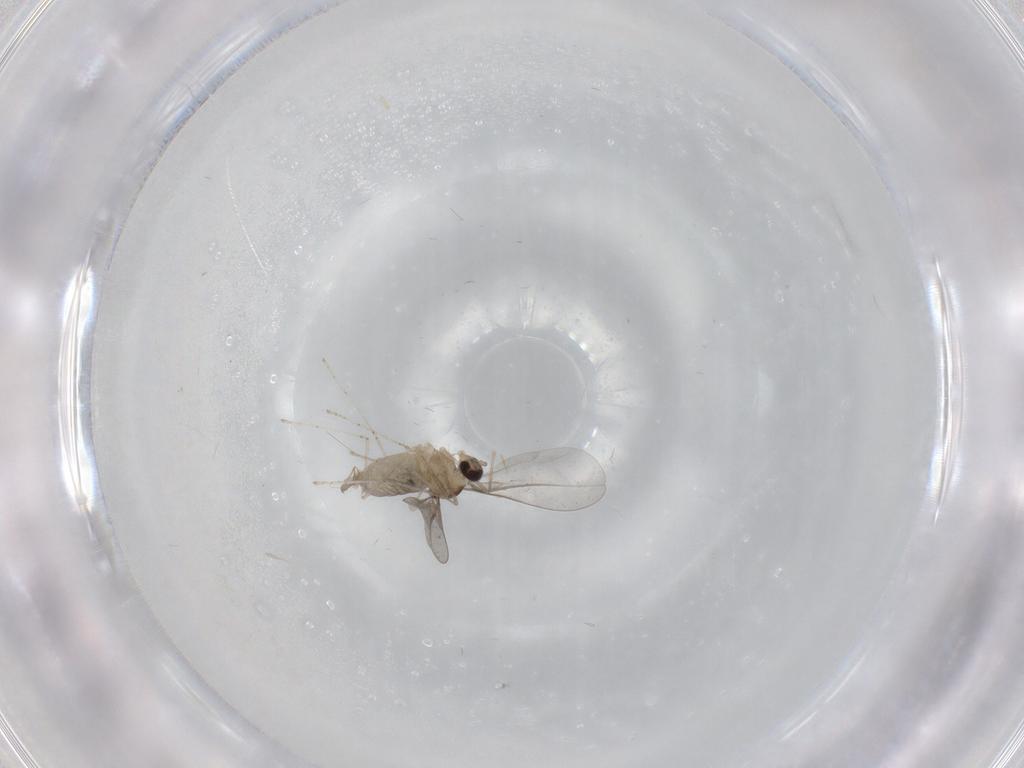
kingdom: Animalia
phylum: Arthropoda
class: Insecta
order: Diptera
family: Cecidomyiidae
